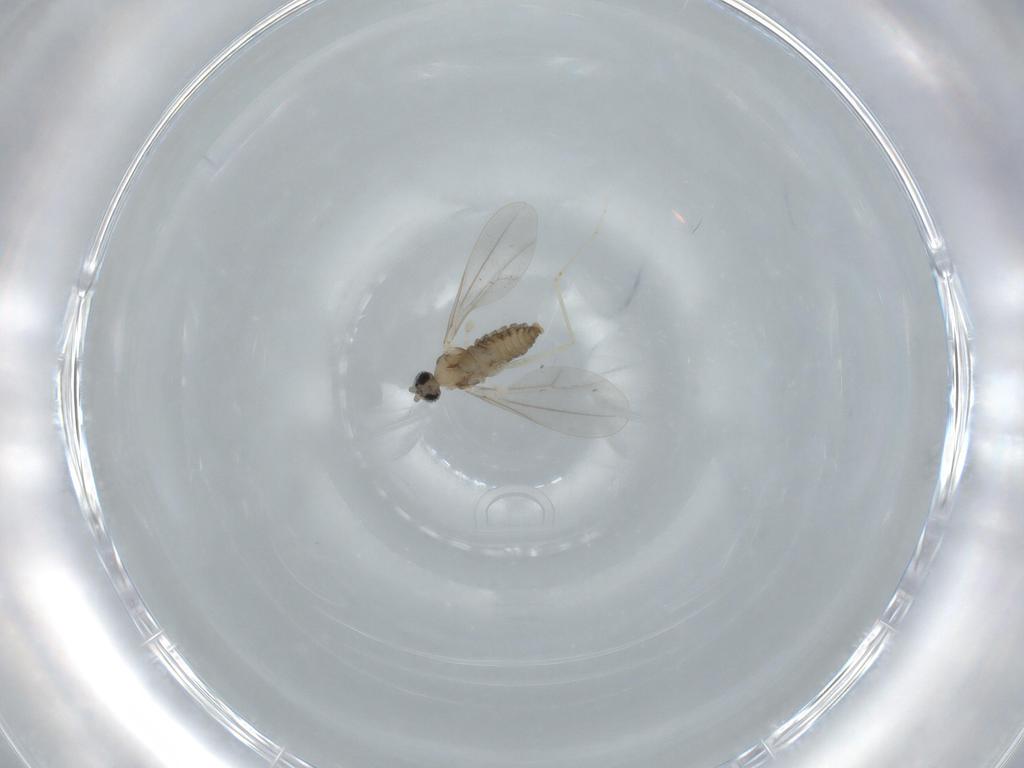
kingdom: Animalia
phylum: Arthropoda
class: Insecta
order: Diptera
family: Cecidomyiidae
